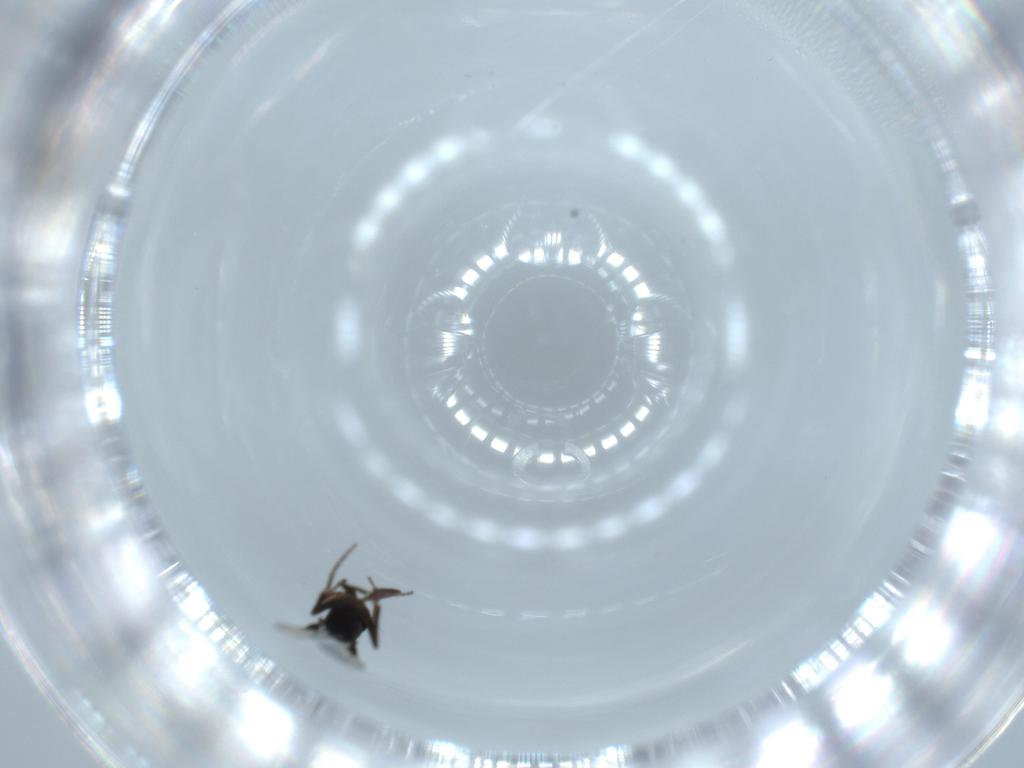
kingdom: Animalia
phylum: Arthropoda
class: Insecta
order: Diptera
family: Phoridae
